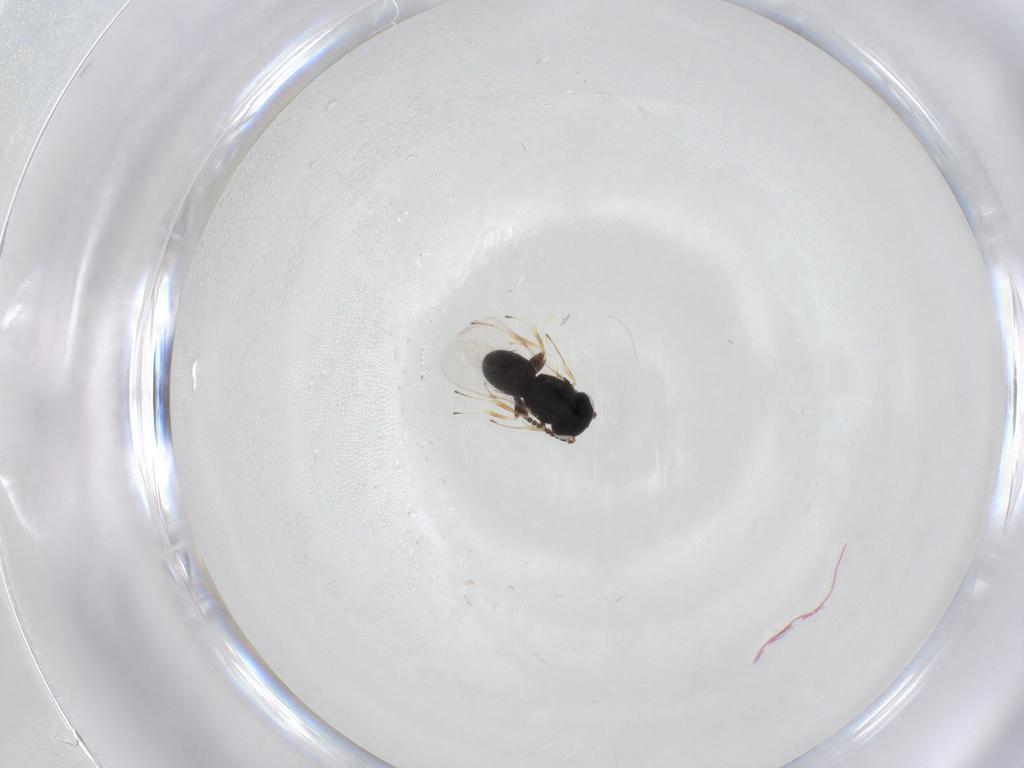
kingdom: Animalia
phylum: Arthropoda
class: Insecta
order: Hymenoptera
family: Scelionidae
